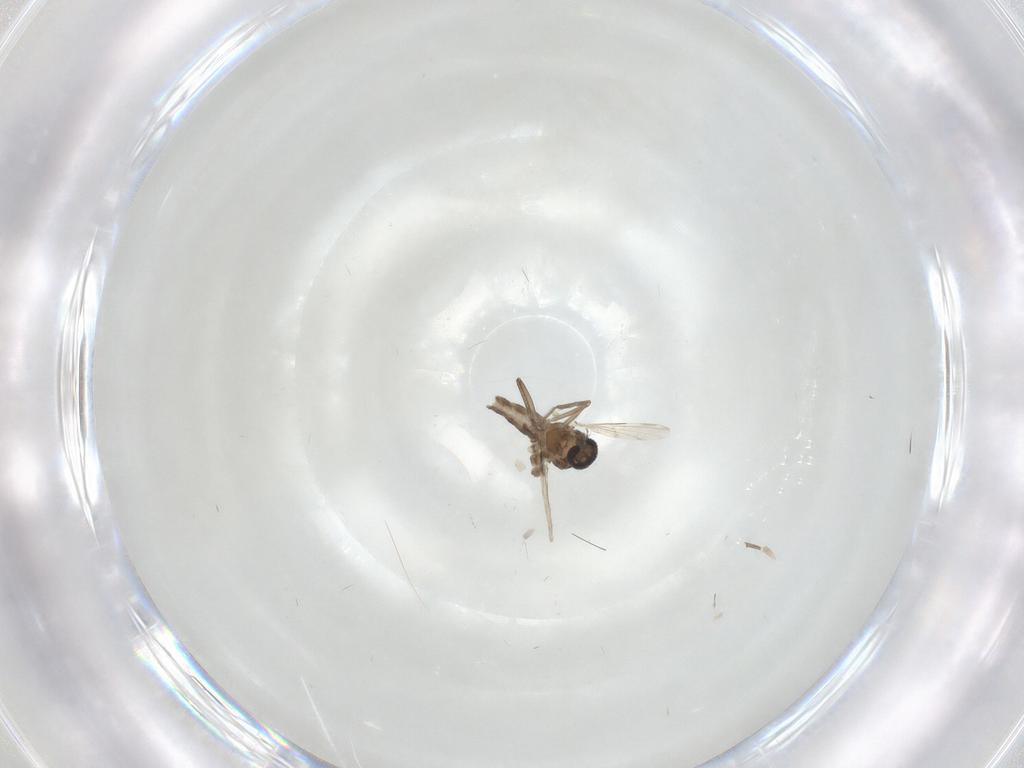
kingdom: Animalia
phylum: Arthropoda
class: Insecta
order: Diptera
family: Ceratopogonidae
